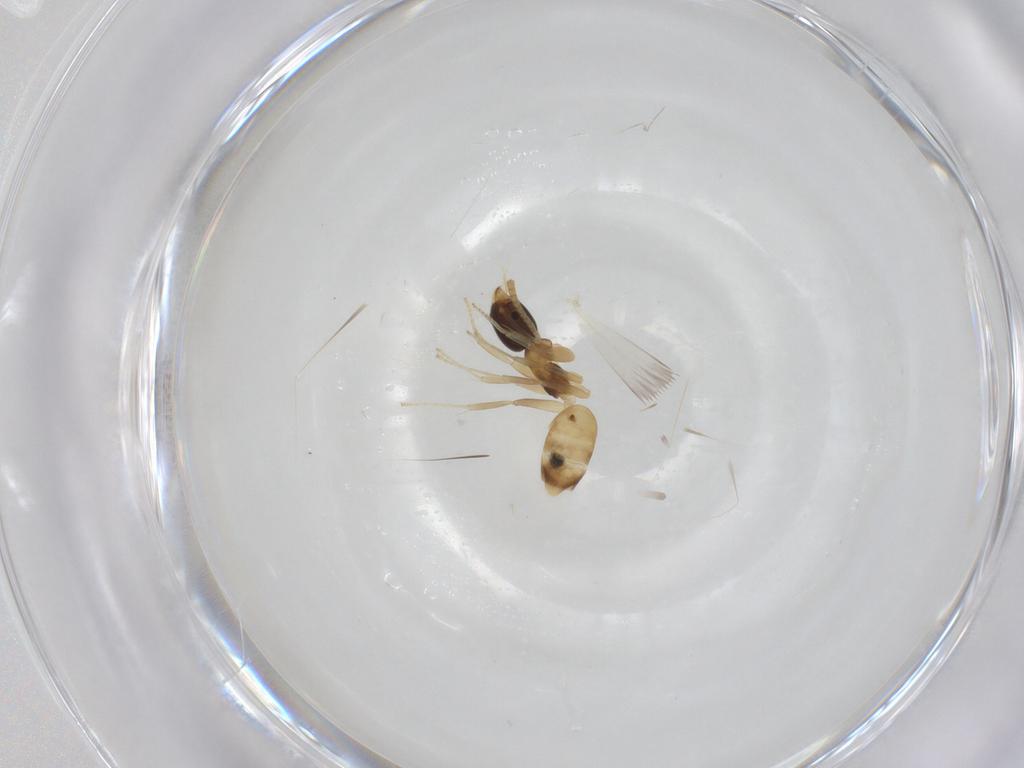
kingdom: Animalia
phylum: Arthropoda
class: Insecta
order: Hymenoptera
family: Formicidae
